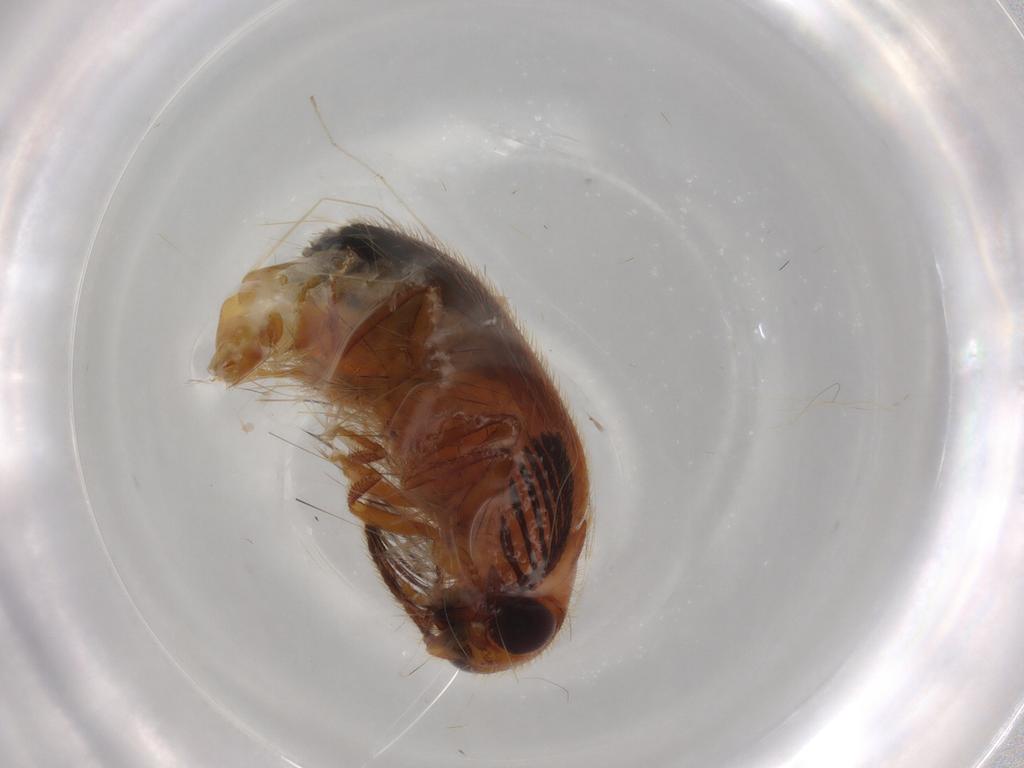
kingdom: Animalia
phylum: Arthropoda
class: Insecta
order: Coleoptera
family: Elateridae
